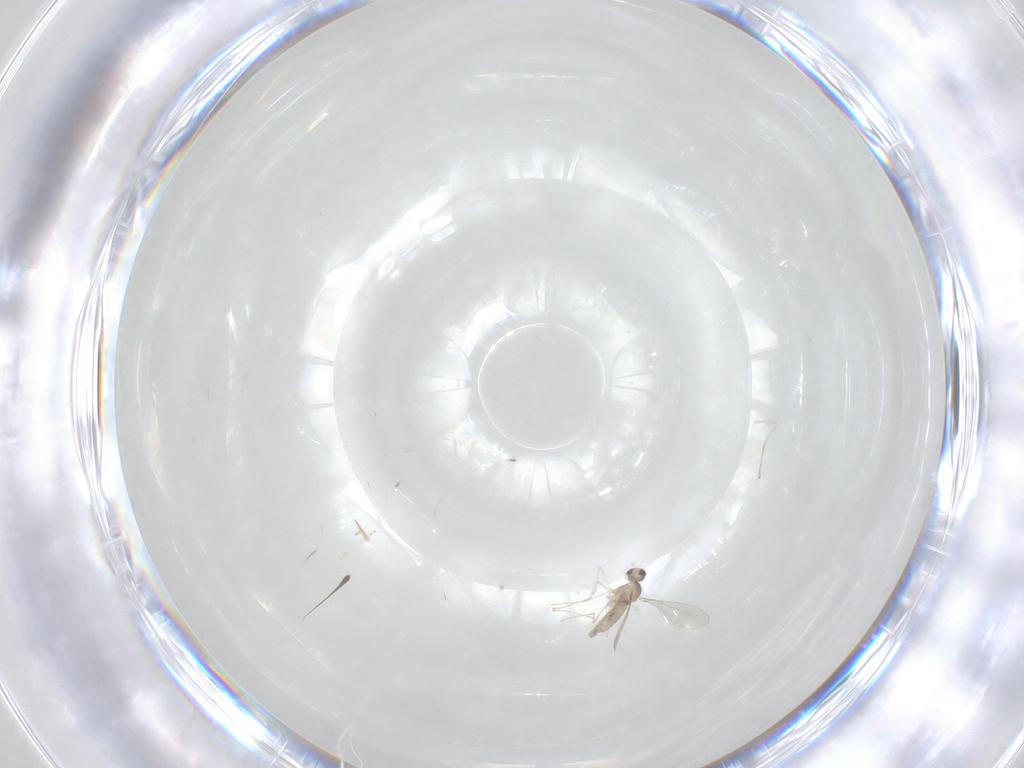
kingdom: Animalia
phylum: Arthropoda
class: Insecta
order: Diptera
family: Cecidomyiidae
